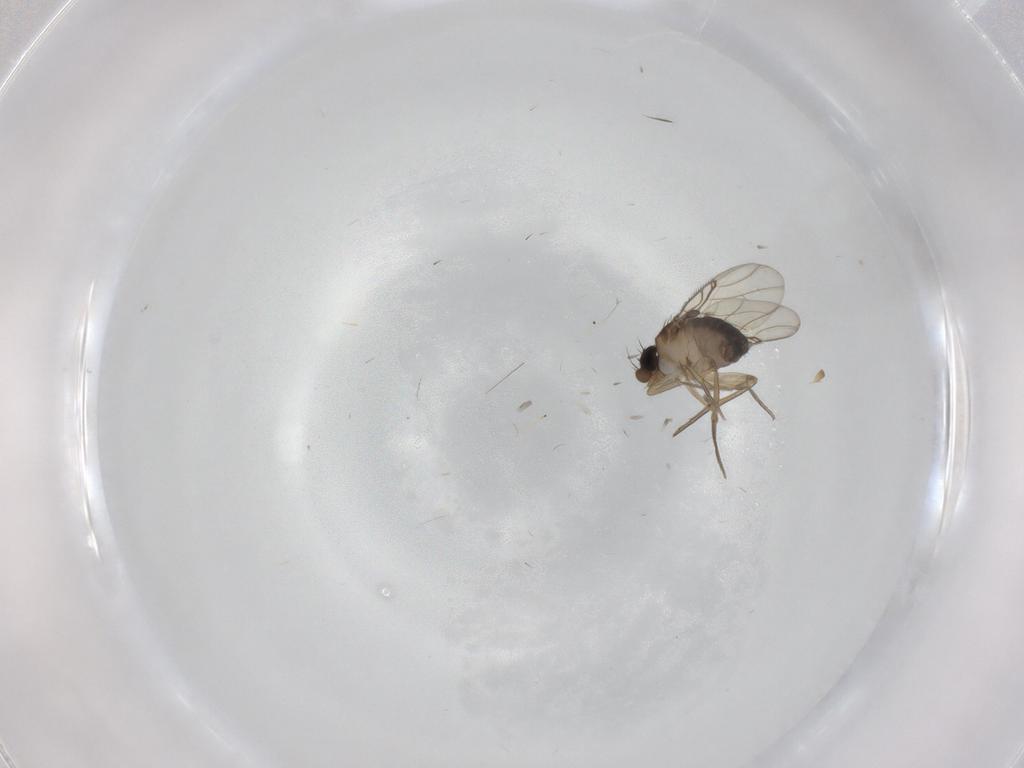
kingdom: Animalia
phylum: Arthropoda
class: Insecta
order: Diptera
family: Phoridae
